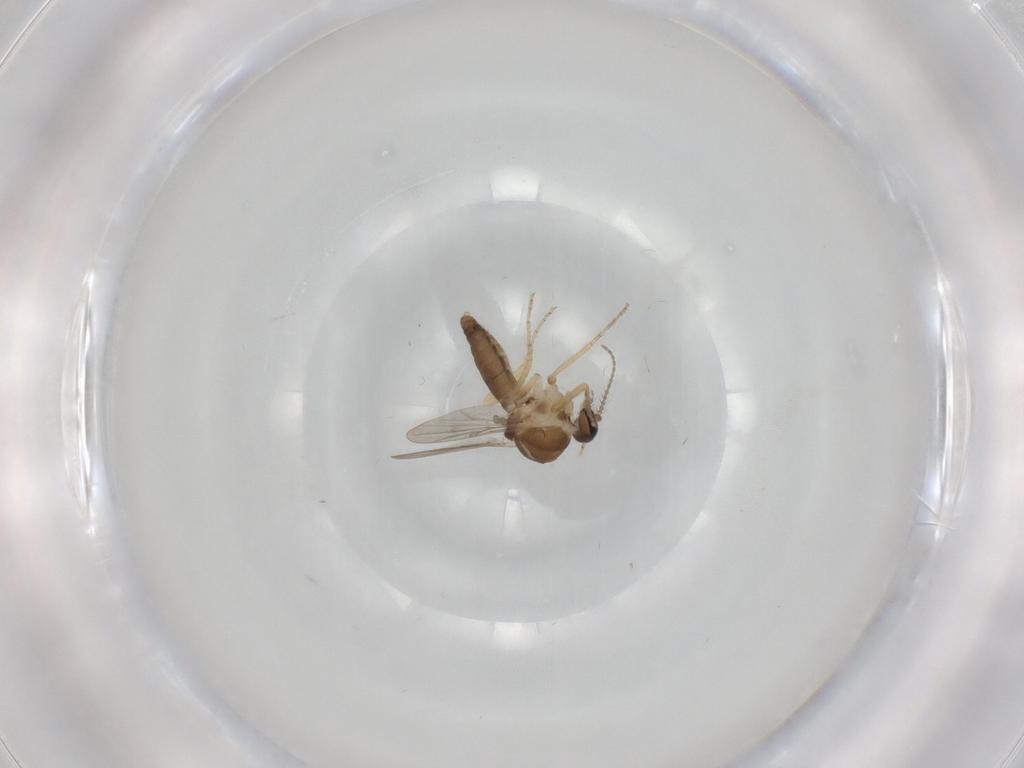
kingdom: Animalia
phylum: Arthropoda
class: Insecta
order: Diptera
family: Ceratopogonidae
